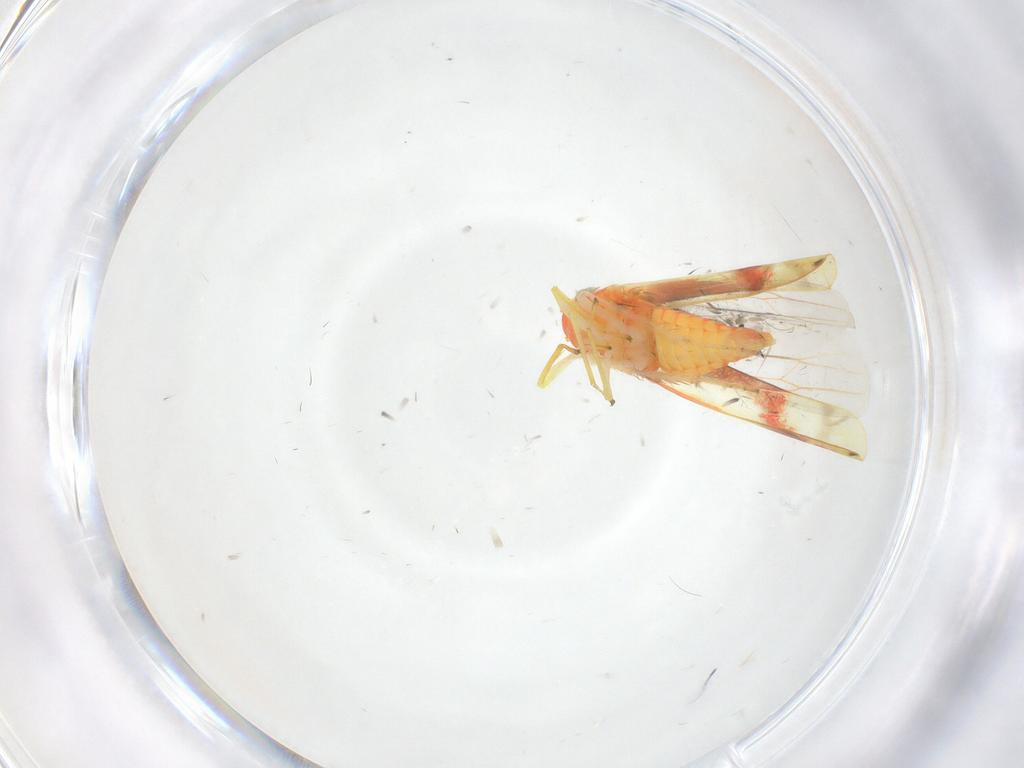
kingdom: Animalia
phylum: Arthropoda
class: Insecta
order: Hemiptera
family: Cicadellidae
